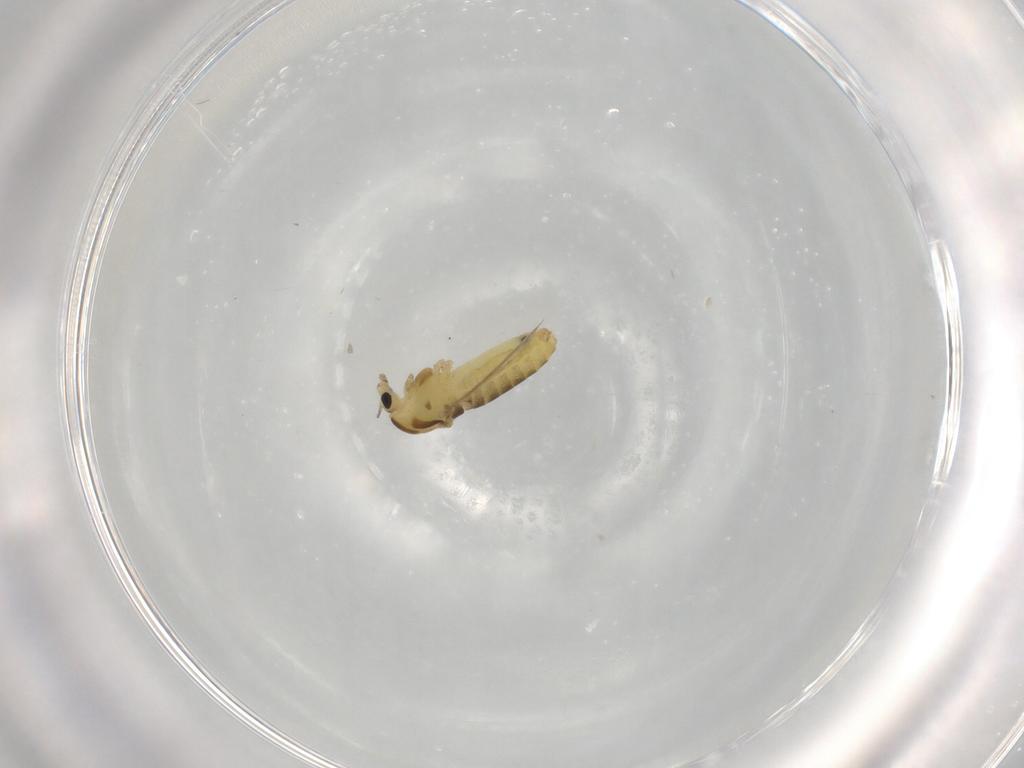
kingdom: Animalia
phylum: Arthropoda
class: Insecta
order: Diptera
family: Chironomidae
